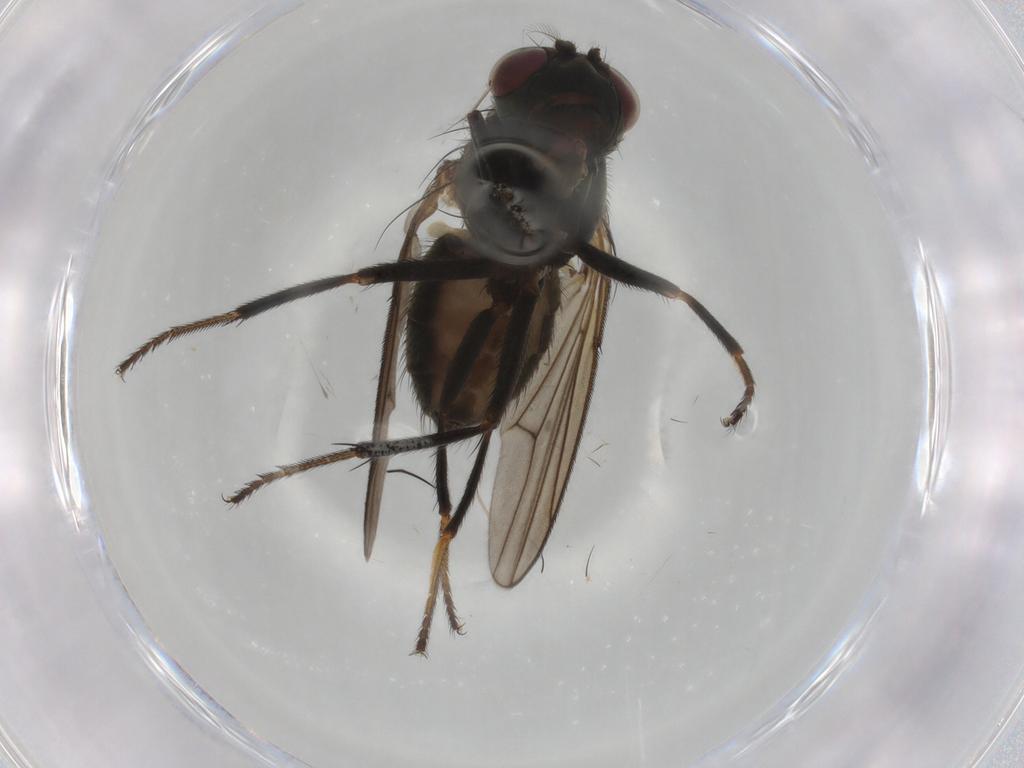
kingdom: Animalia
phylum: Arthropoda
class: Insecta
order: Diptera
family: Ephydridae
